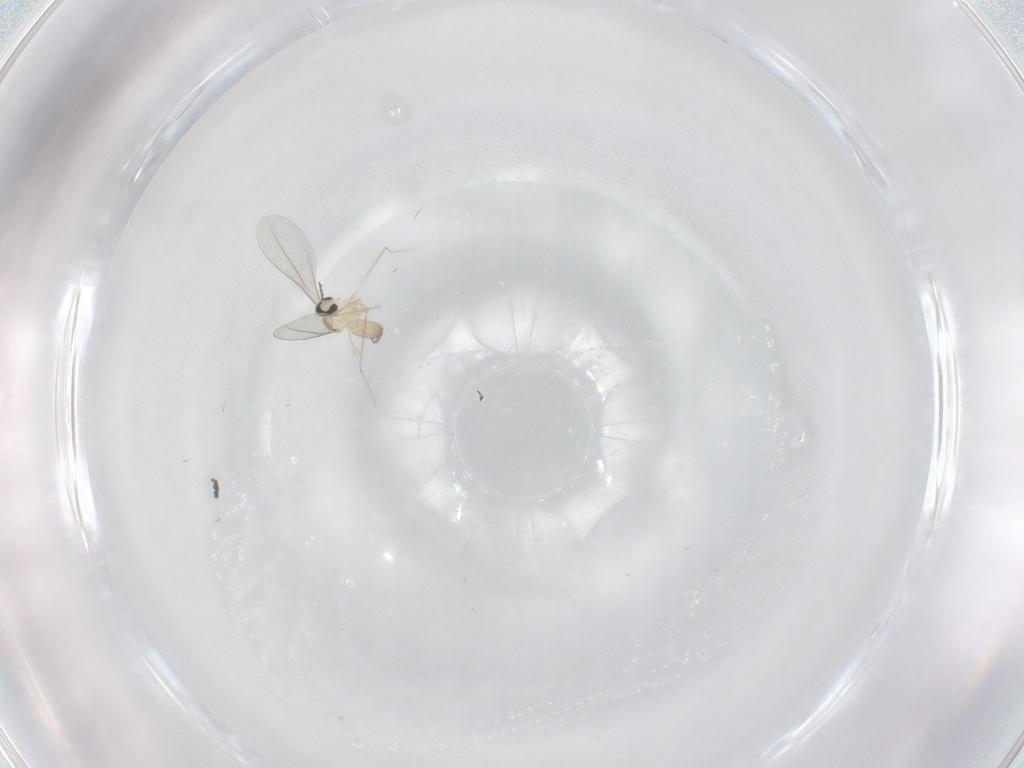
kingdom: Animalia
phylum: Arthropoda
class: Insecta
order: Diptera
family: Cecidomyiidae
